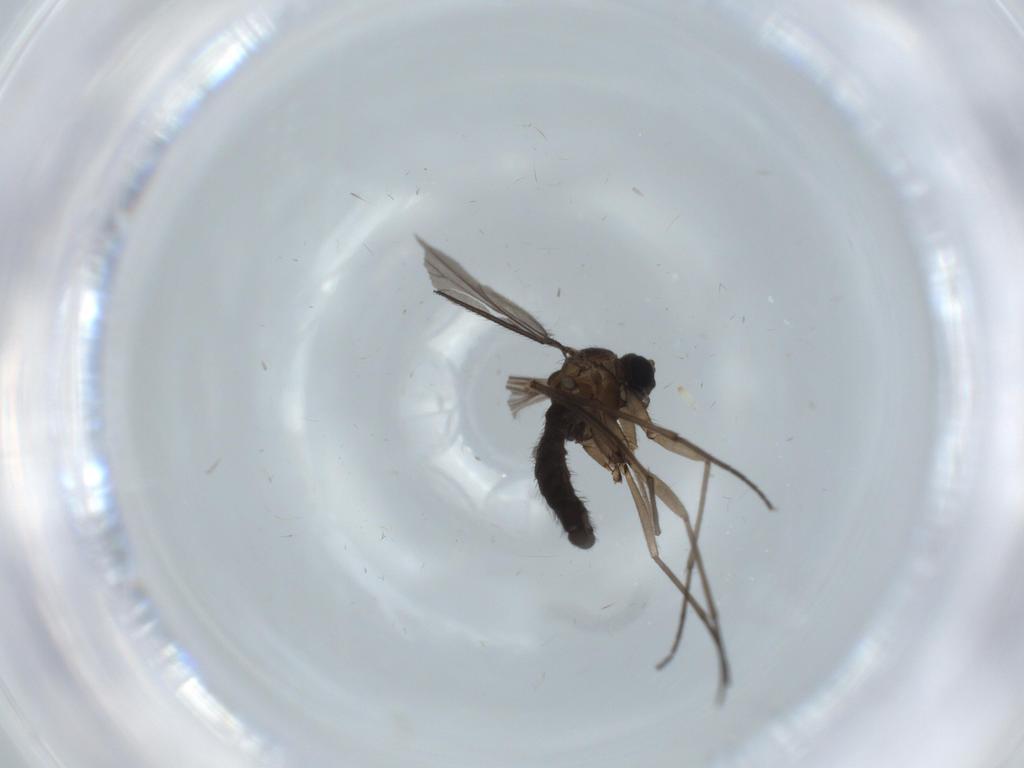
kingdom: Animalia
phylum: Arthropoda
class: Insecta
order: Diptera
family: Sciaridae
